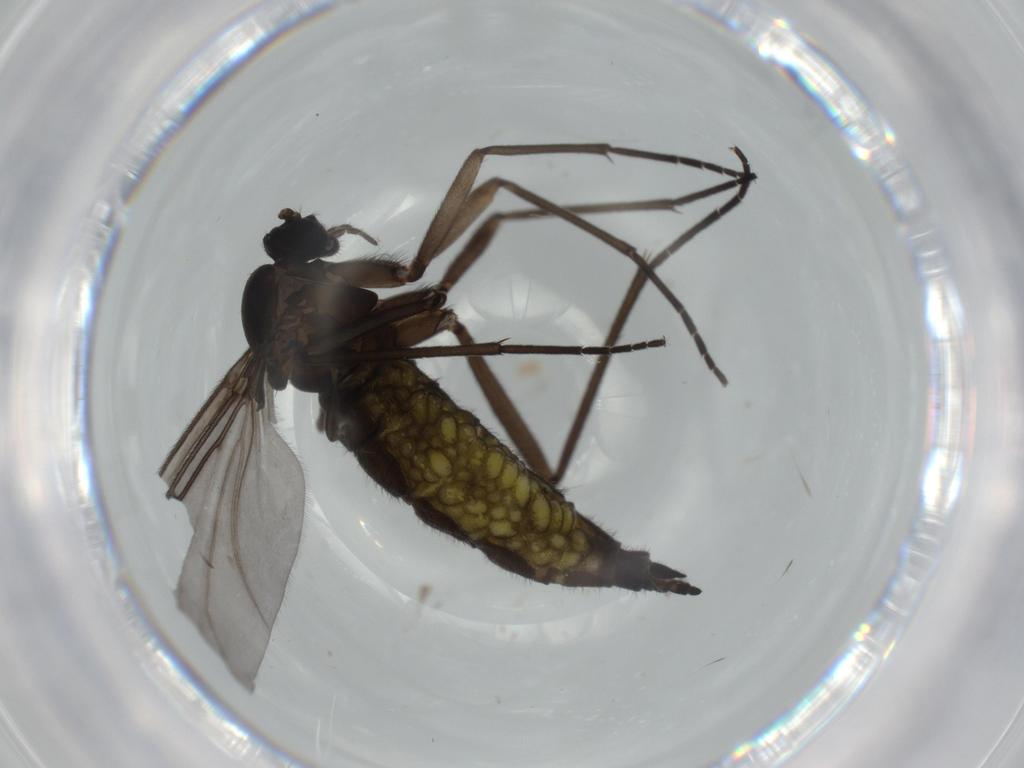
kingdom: Animalia
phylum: Arthropoda
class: Insecta
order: Diptera
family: Sciaridae
